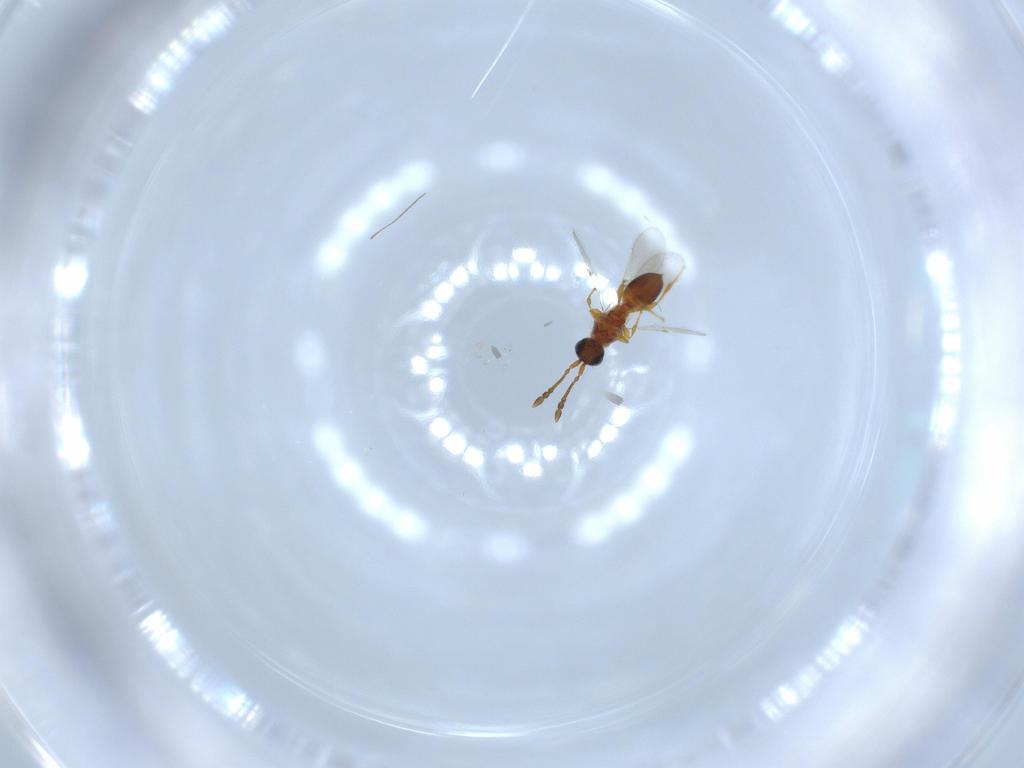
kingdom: Animalia
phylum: Arthropoda
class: Insecta
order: Hymenoptera
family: Diapriidae
